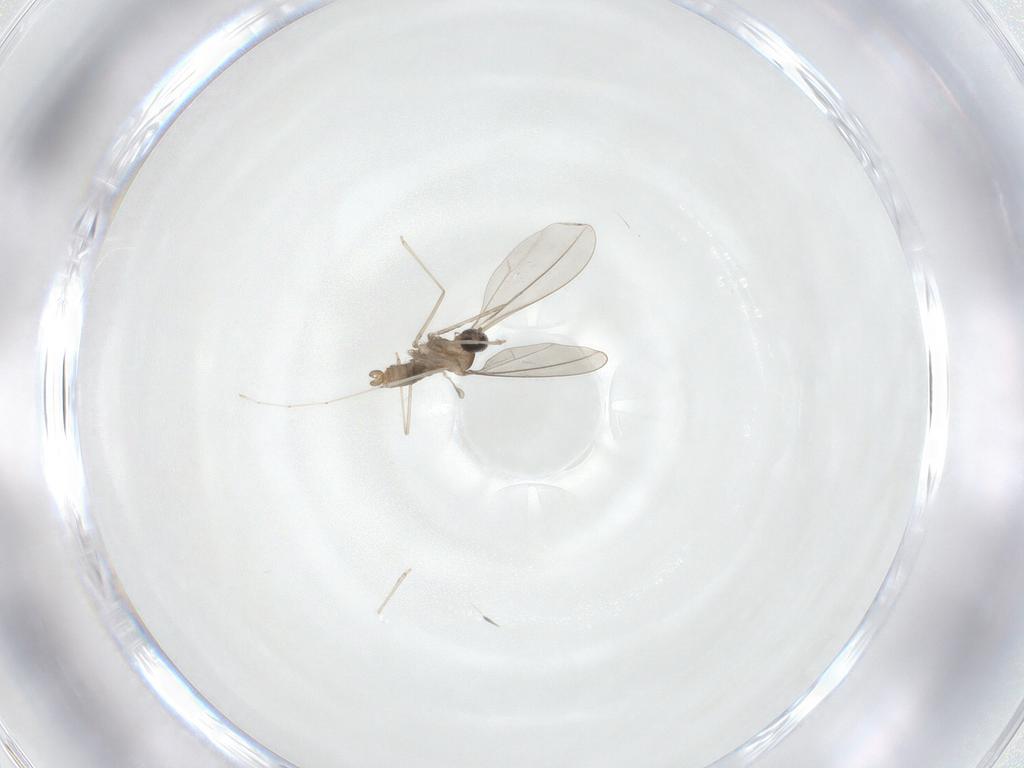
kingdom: Animalia
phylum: Arthropoda
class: Insecta
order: Diptera
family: Cecidomyiidae
